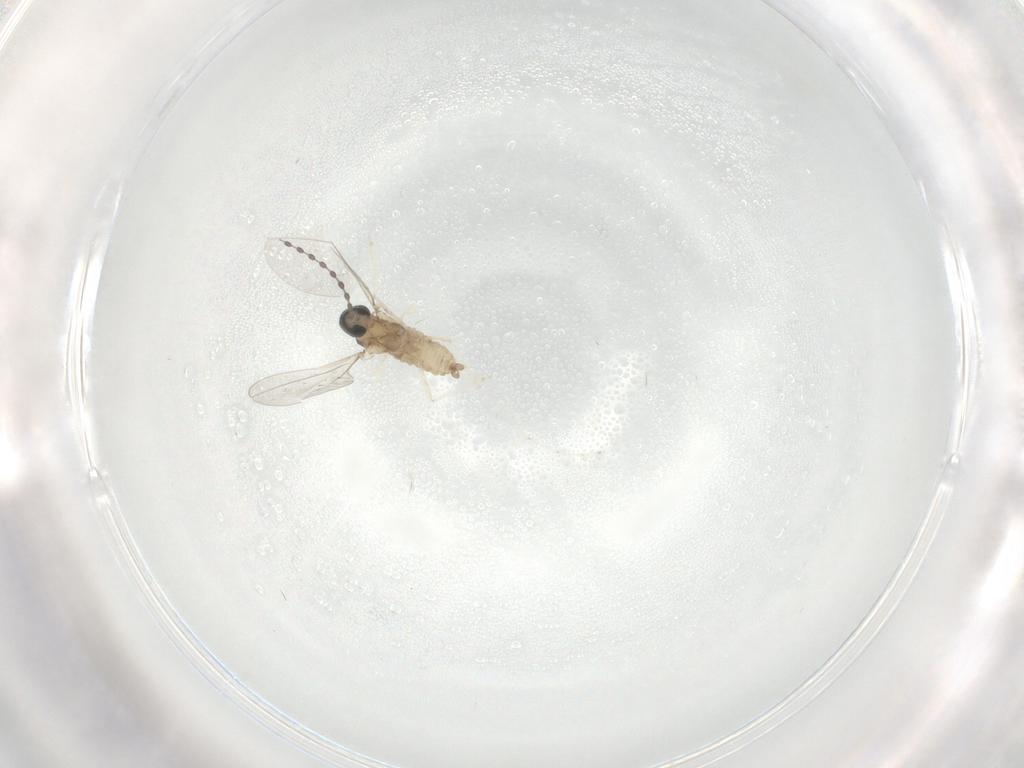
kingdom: Animalia
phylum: Arthropoda
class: Insecta
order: Diptera
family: Cecidomyiidae
